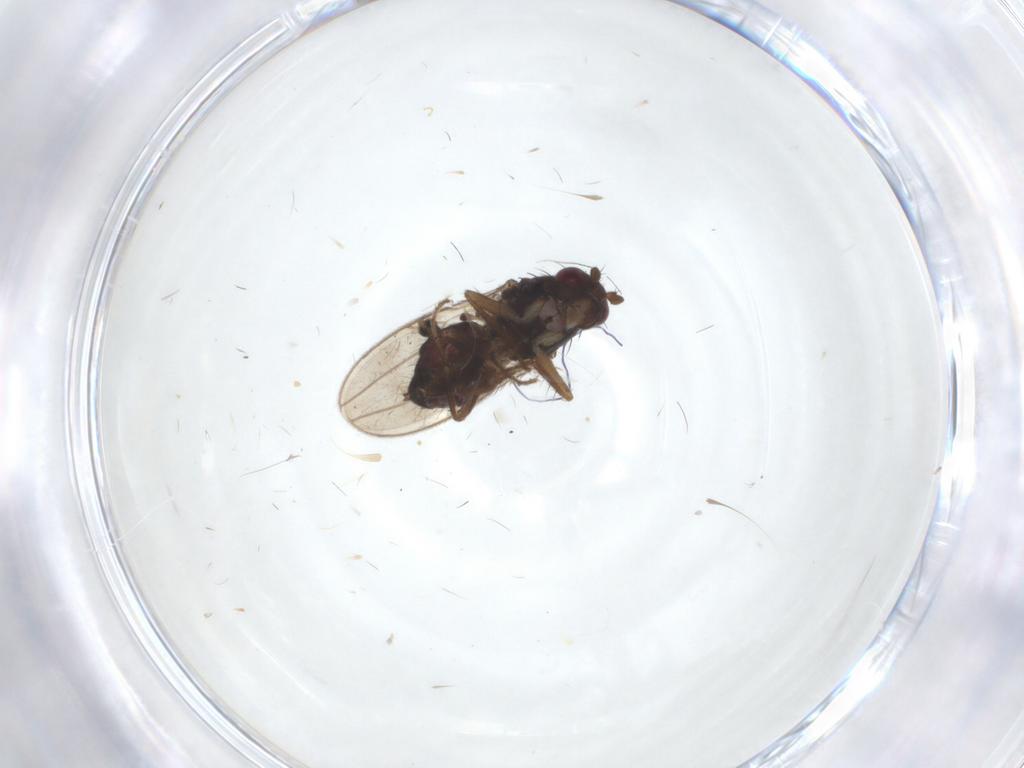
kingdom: Animalia
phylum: Arthropoda
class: Insecta
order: Diptera
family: Sphaeroceridae
